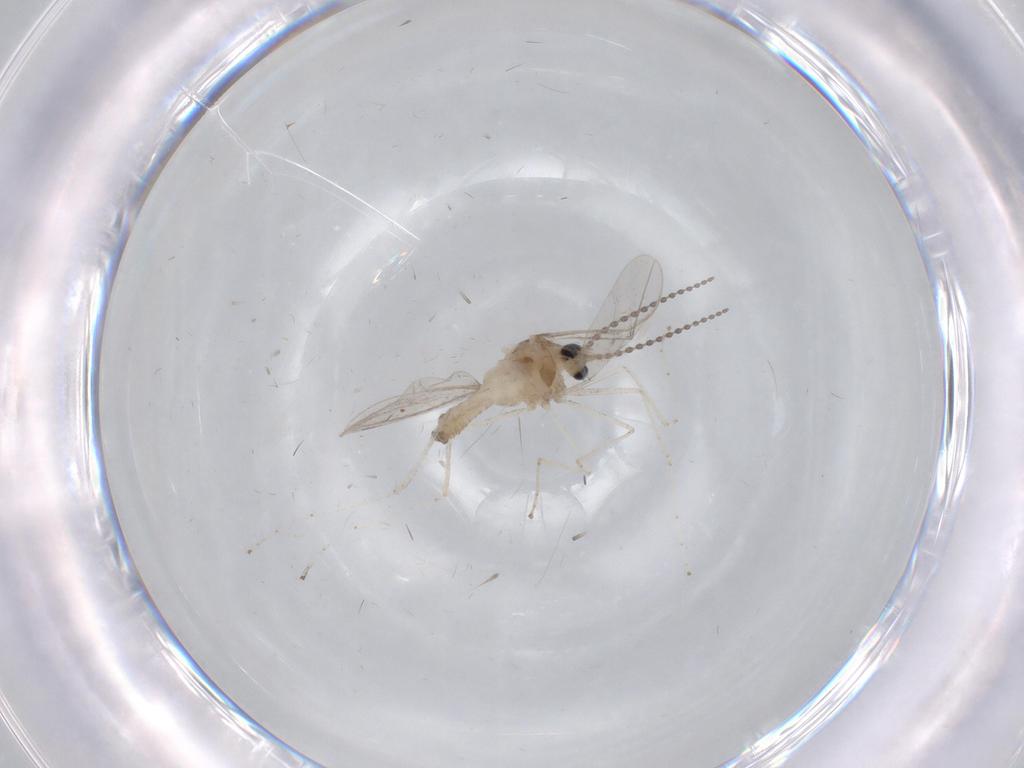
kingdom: Animalia
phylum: Arthropoda
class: Insecta
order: Diptera
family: Cecidomyiidae
